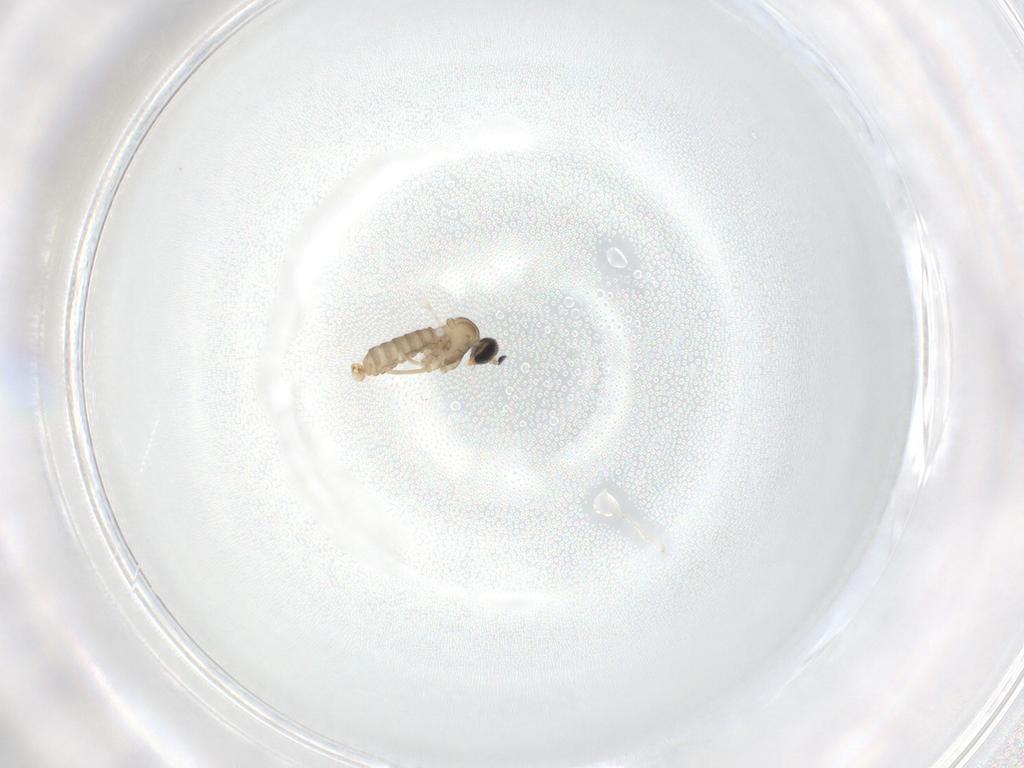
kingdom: Animalia
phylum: Arthropoda
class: Insecta
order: Diptera
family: Cecidomyiidae
